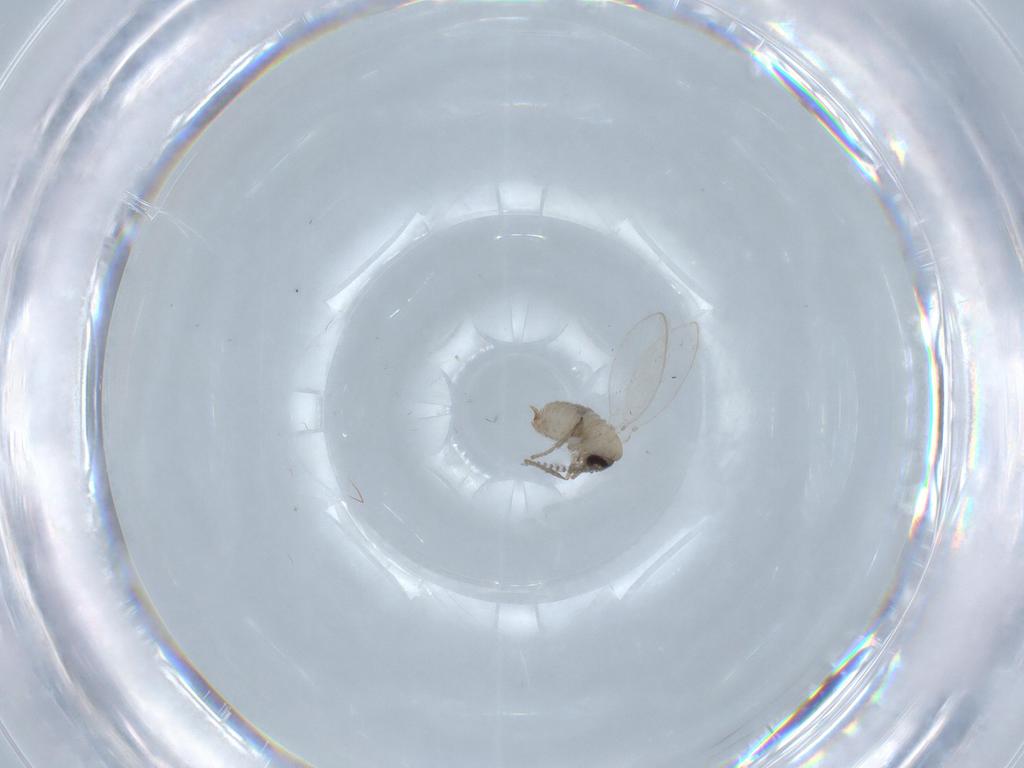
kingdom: Animalia
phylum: Arthropoda
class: Insecta
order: Diptera
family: Psychodidae
